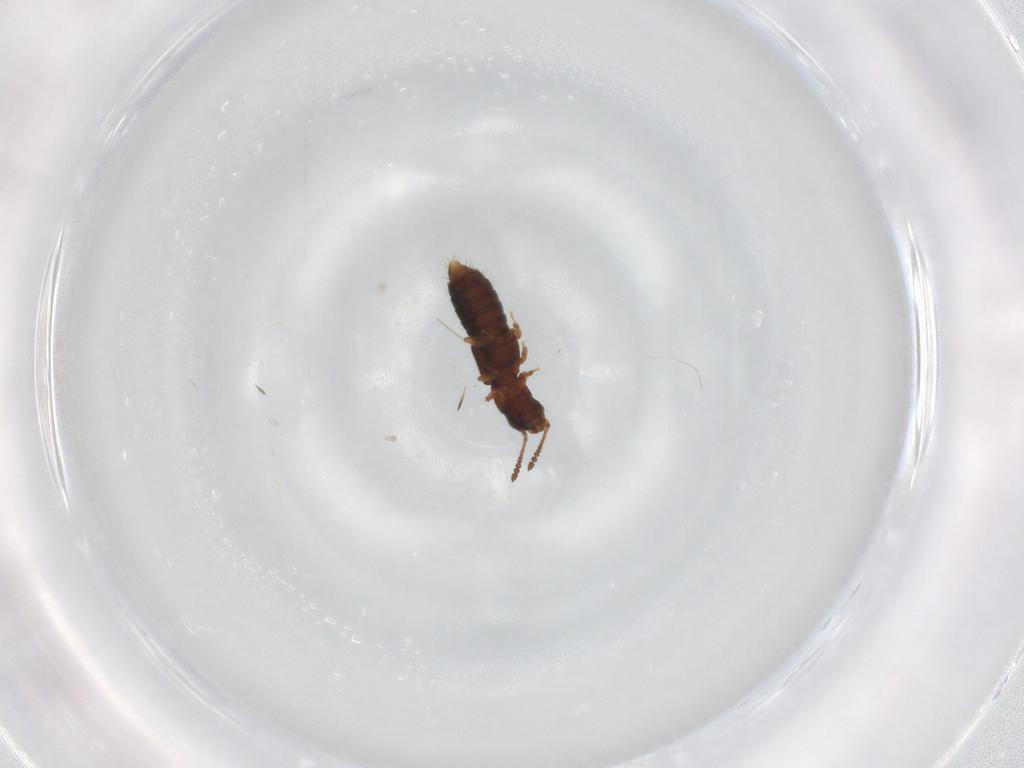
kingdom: Animalia
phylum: Arthropoda
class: Insecta
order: Coleoptera
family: Staphylinidae
